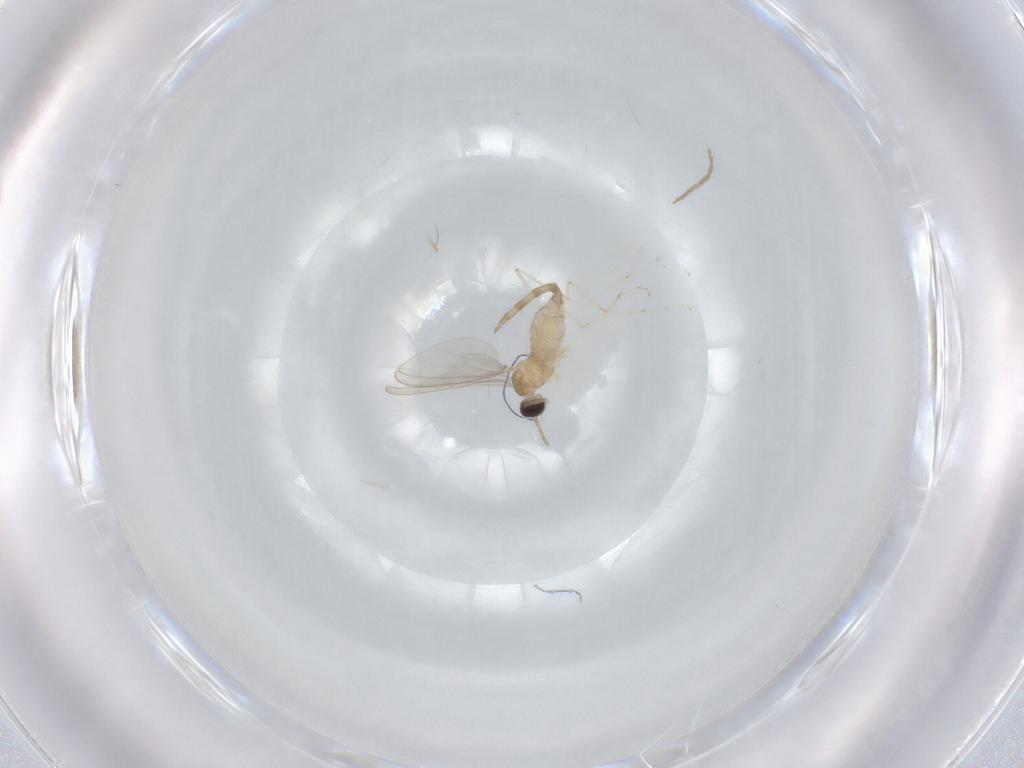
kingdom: Animalia
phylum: Arthropoda
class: Insecta
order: Diptera
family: Cecidomyiidae
